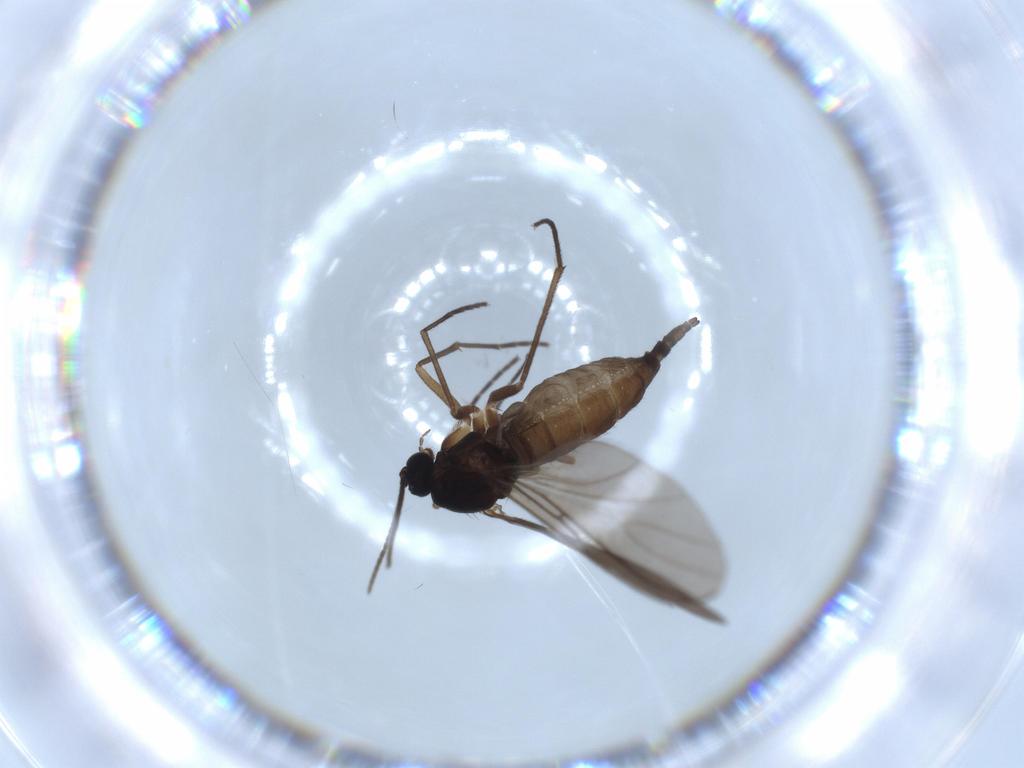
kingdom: Animalia
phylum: Arthropoda
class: Insecta
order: Diptera
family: Sciaridae
